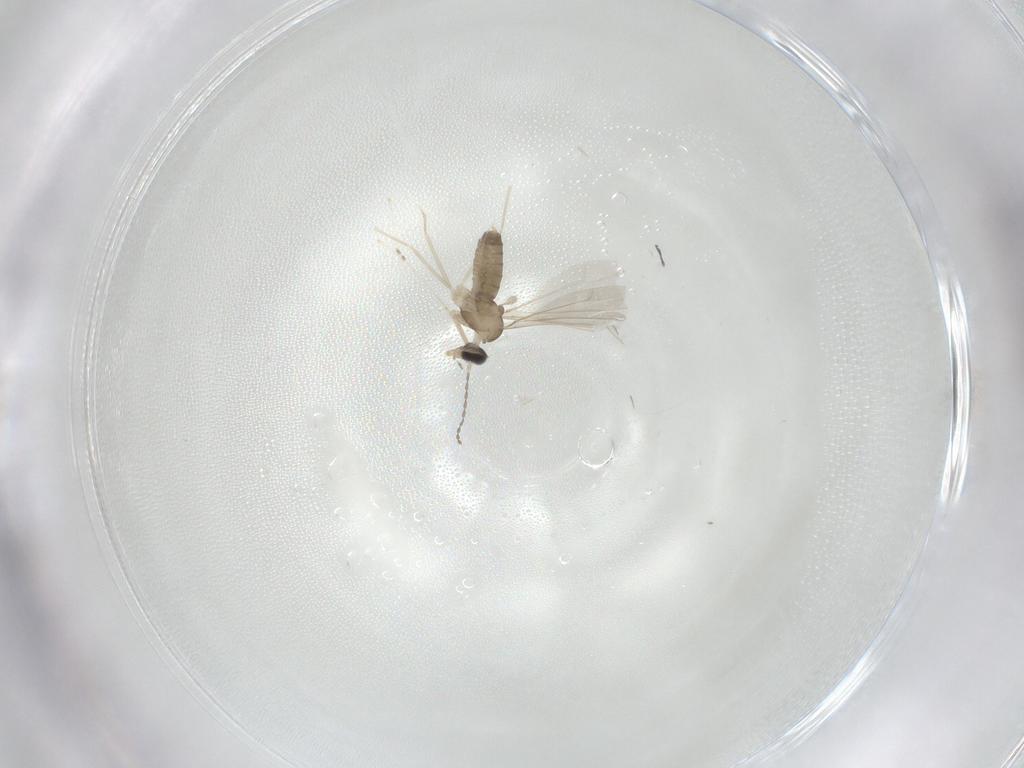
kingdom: Animalia
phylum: Arthropoda
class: Insecta
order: Diptera
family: Cecidomyiidae
